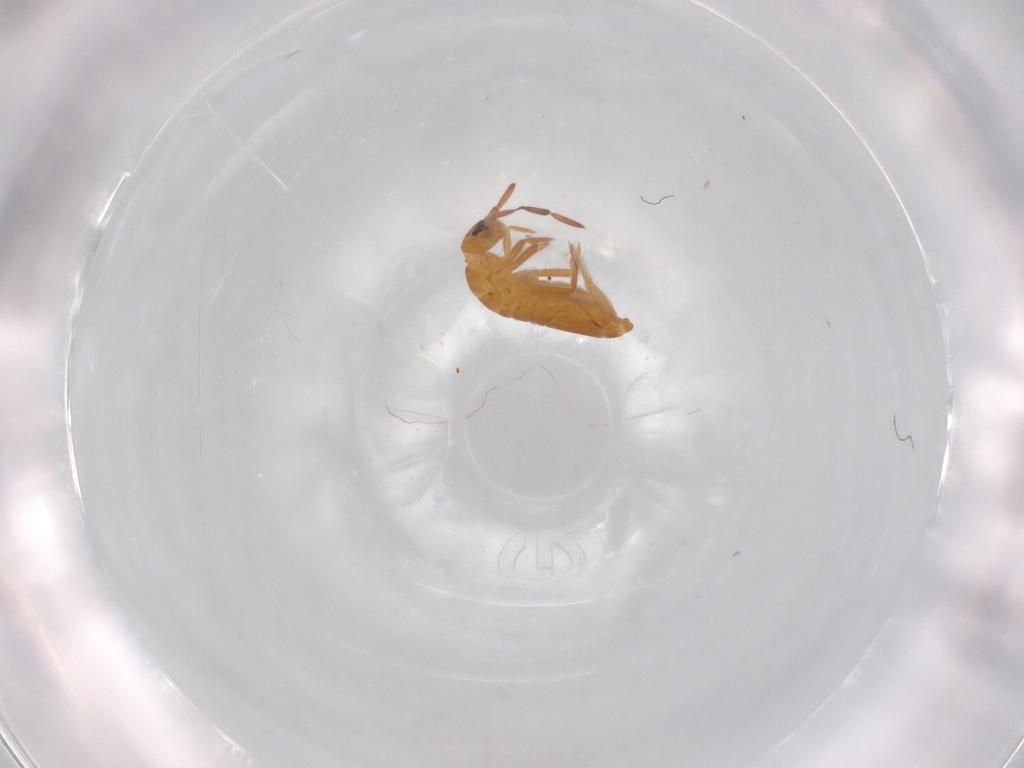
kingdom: Animalia
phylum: Arthropoda
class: Collembola
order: Entomobryomorpha
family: Entomobryidae
